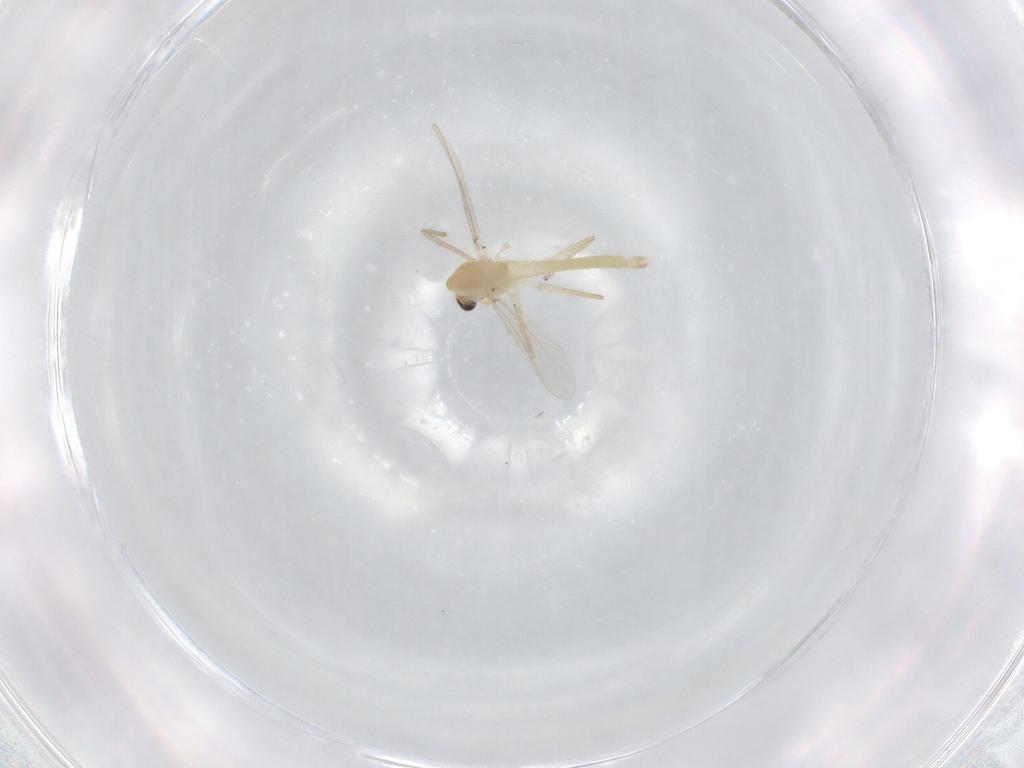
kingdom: Animalia
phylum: Arthropoda
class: Insecta
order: Diptera
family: Chironomidae
